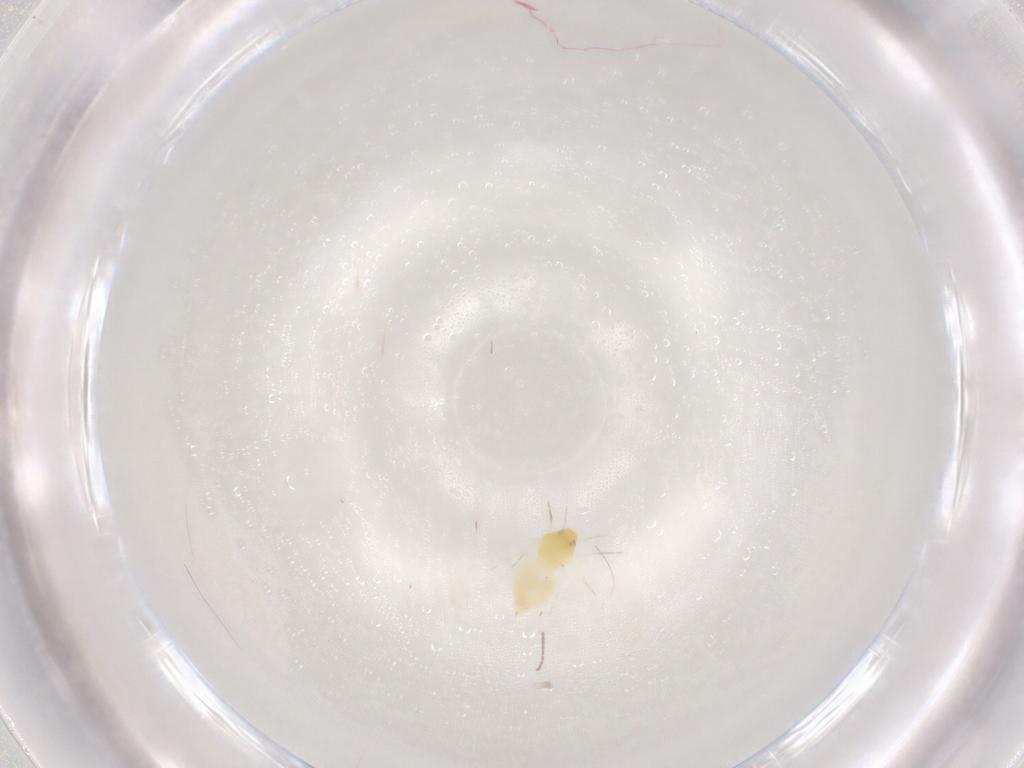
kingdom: Animalia
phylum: Arthropoda
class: Insecta
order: Hemiptera
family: Aleyrodidae
